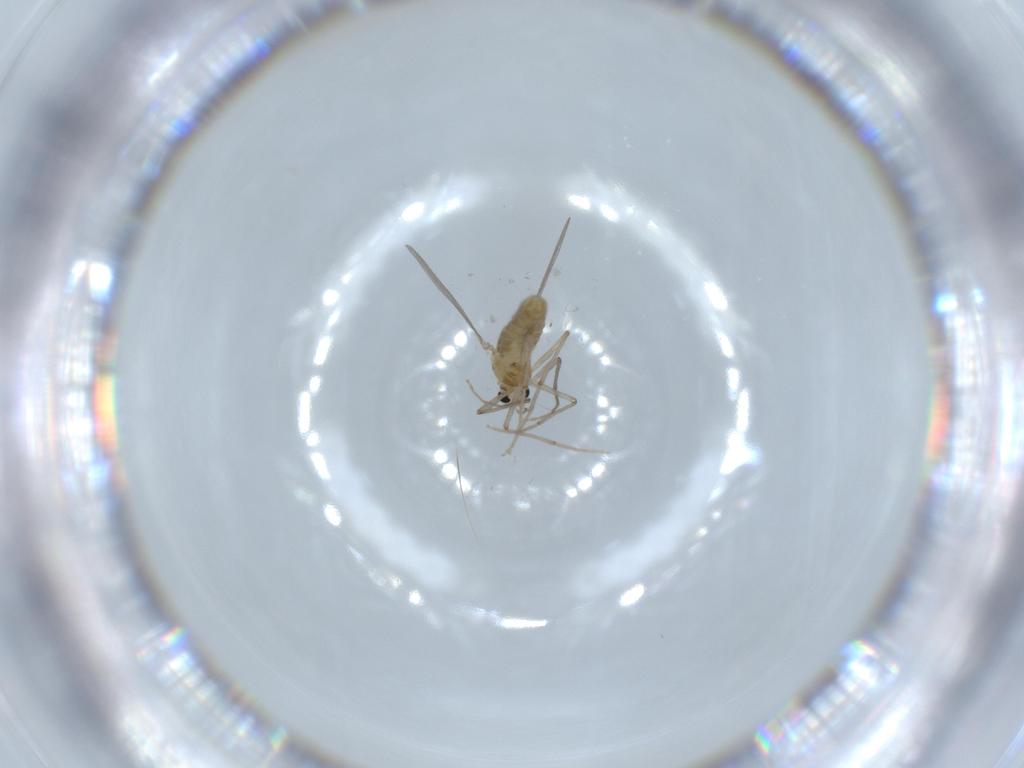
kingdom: Animalia
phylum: Arthropoda
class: Insecta
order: Diptera
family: Chironomidae
